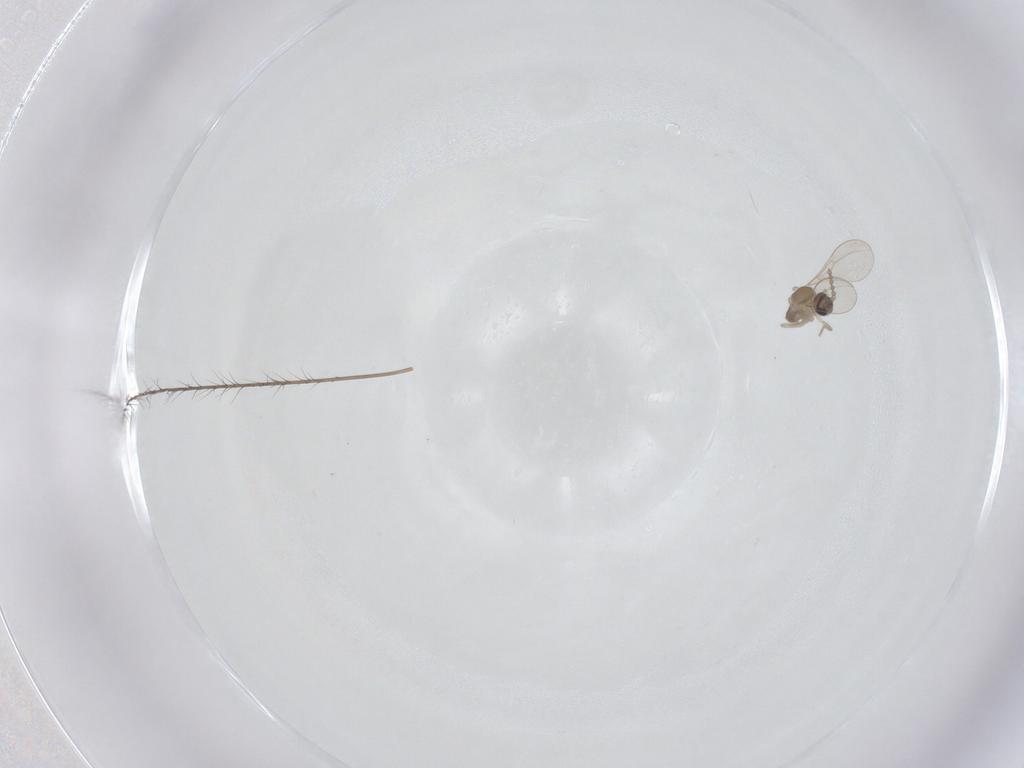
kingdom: Animalia
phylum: Arthropoda
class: Insecta
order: Diptera
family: Cecidomyiidae
